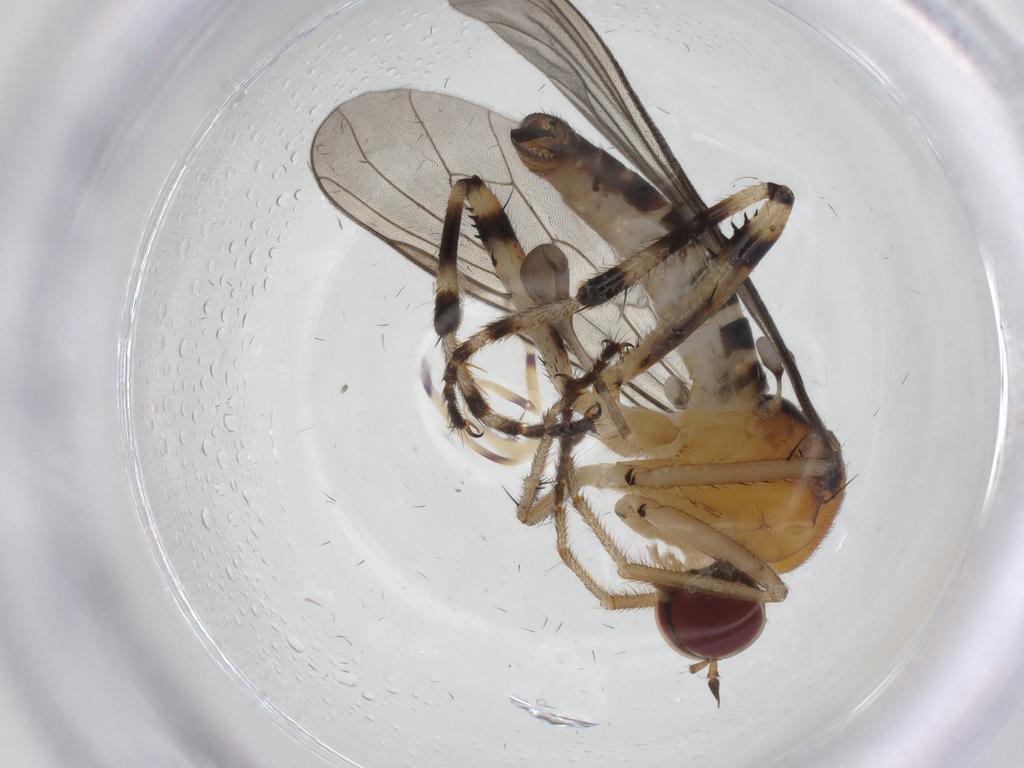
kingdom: Animalia
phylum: Arthropoda
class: Insecta
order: Diptera
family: Hybotidae
